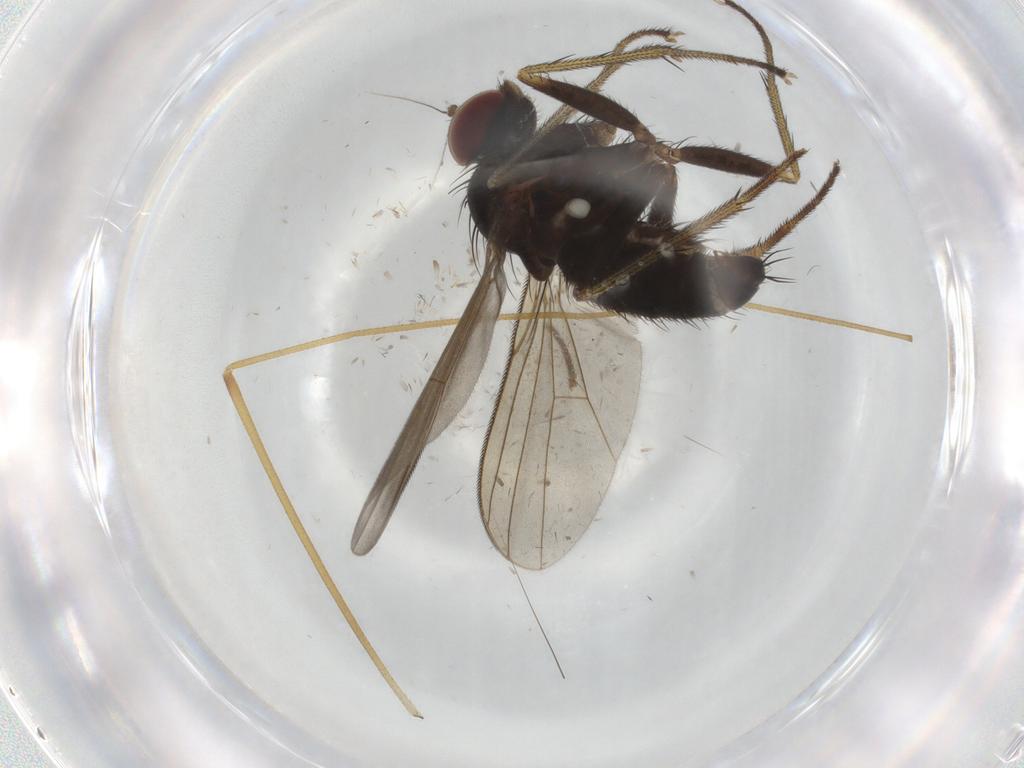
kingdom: Animalia
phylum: Arthropoda
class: Insecta
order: Diptera
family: Dolichopodidae
